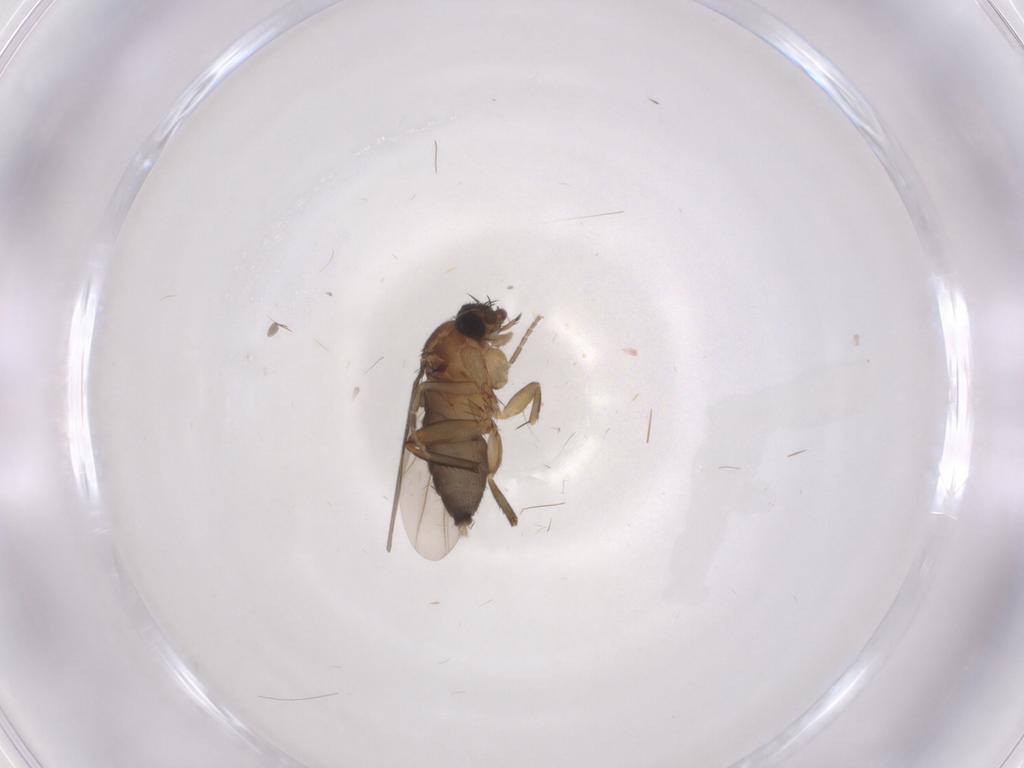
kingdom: Animalia
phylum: Arthropoda
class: Insecta
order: Diptera
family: Phoridae
